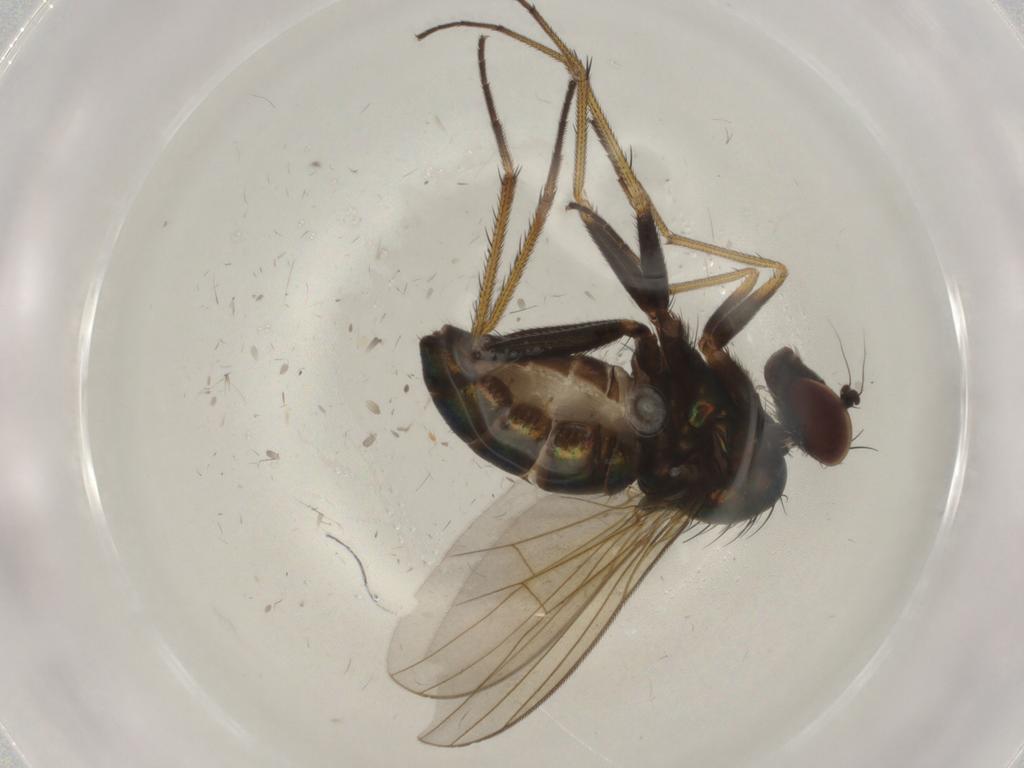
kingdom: Animalia
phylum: Arthropoda
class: Insecta
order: Diptera
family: Dolichopodidae
